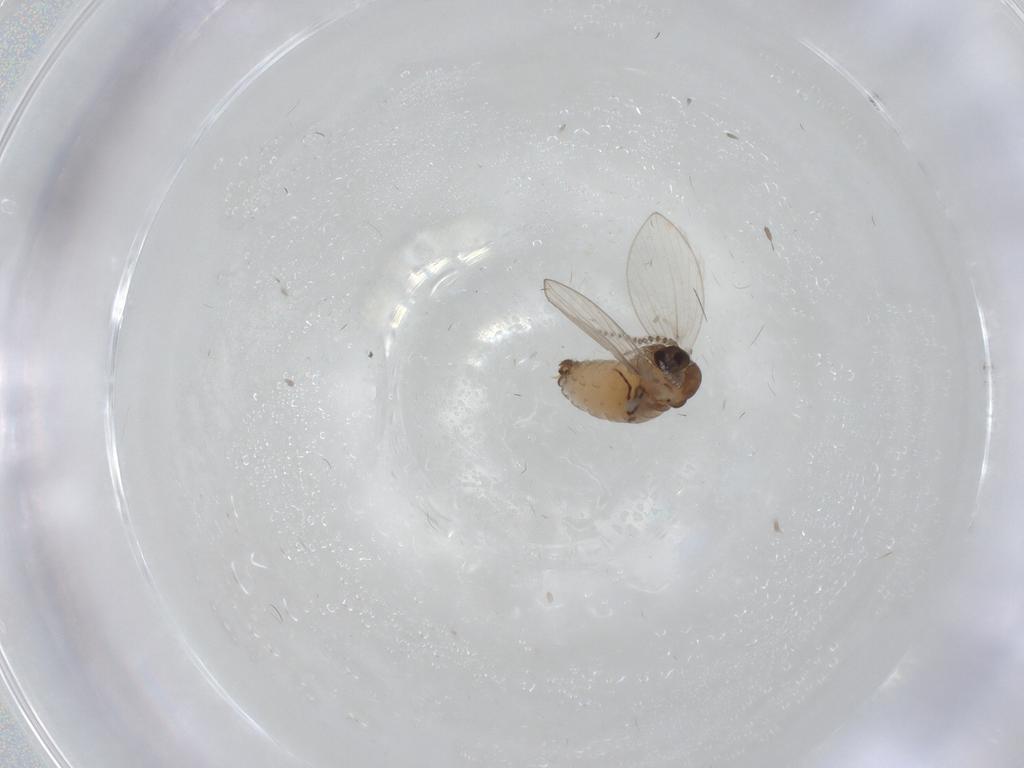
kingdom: Animalia
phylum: Arthropoda
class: Insecta
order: Diptera
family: Psychodidae
